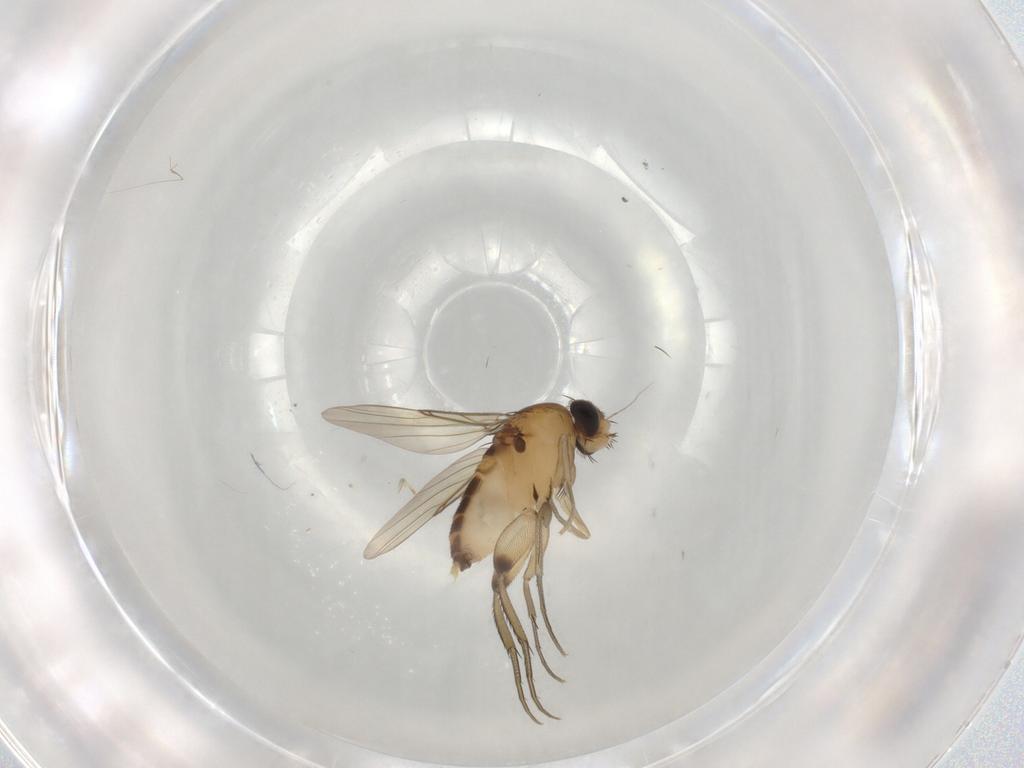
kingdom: Animalia
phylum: Arthropoda
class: Insecta
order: Diptera
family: Ceratopogonidae
